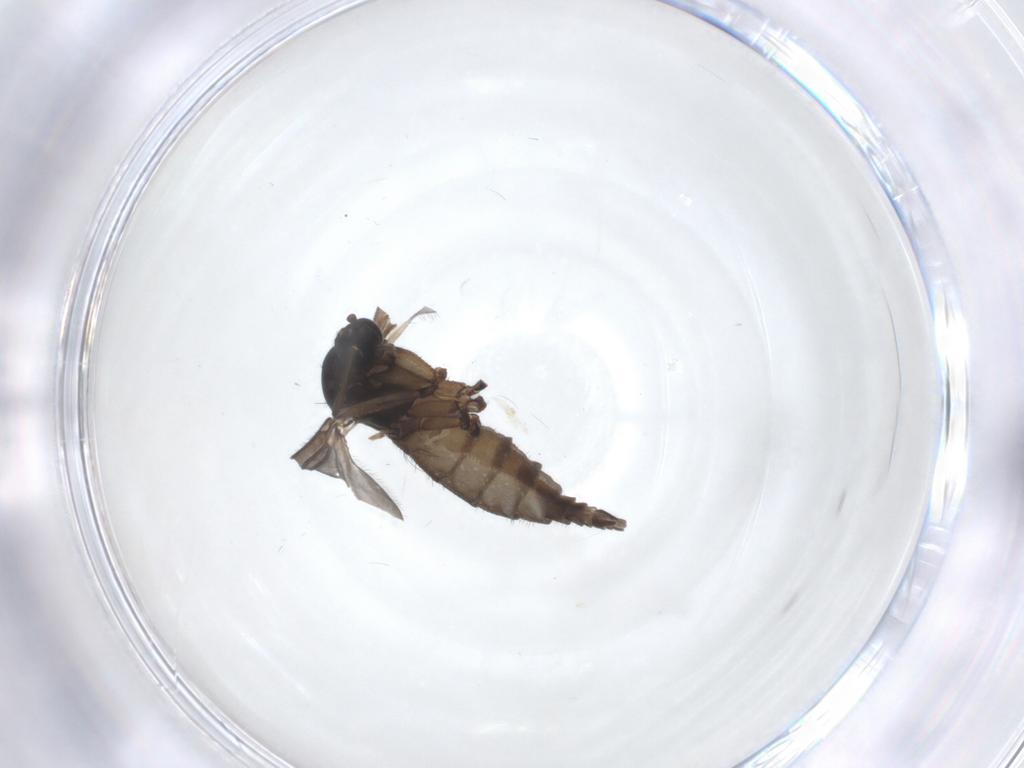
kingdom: Animalia
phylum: Arthropoda
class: Insecta
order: Diptera
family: Sciaridae
